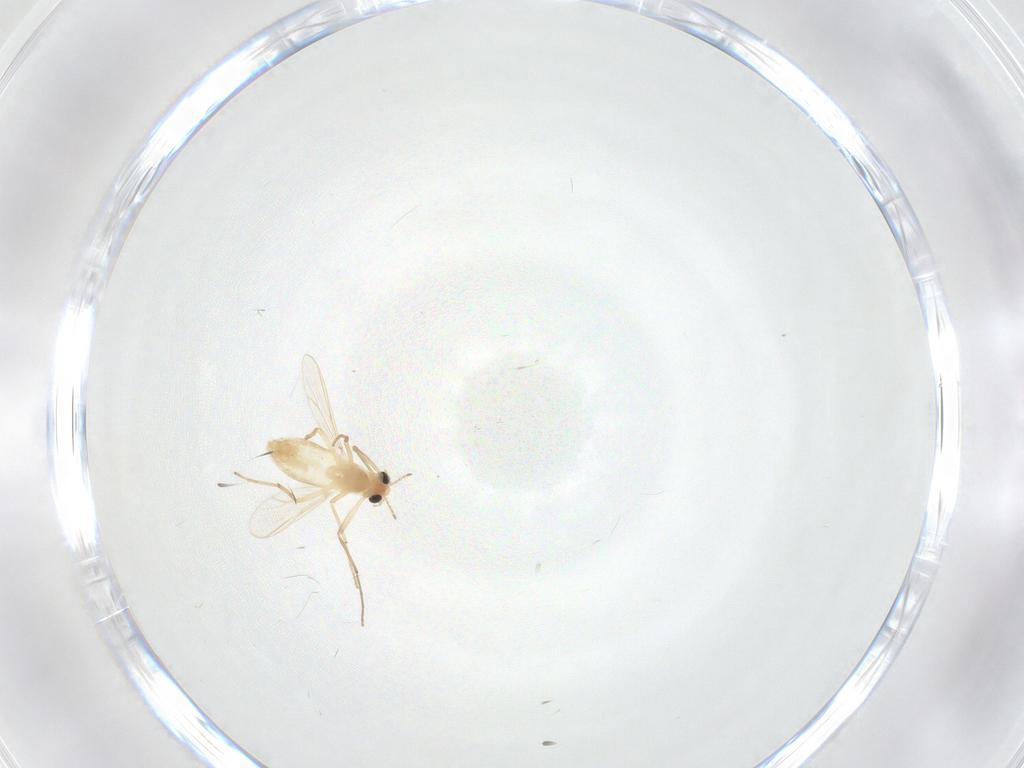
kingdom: Animalia
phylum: Arthropoda
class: Insecta
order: Diptera
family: Chironomidae
